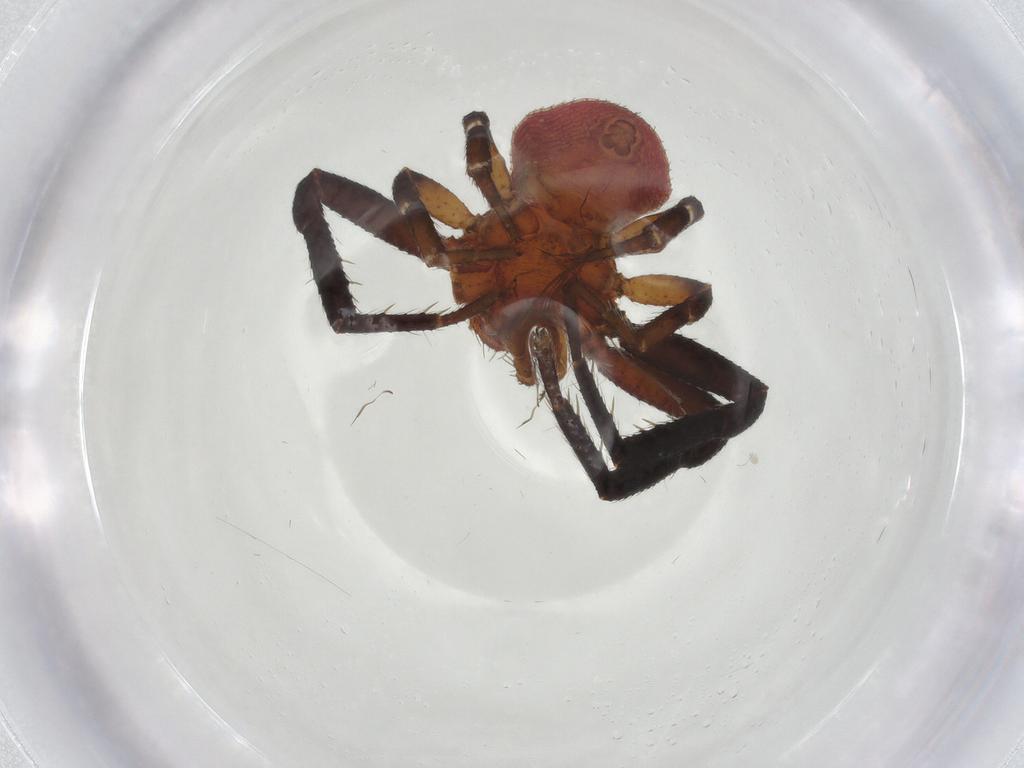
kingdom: Animalia
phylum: Arthropoda
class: Arachnida
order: Araneae
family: Thomisidae
